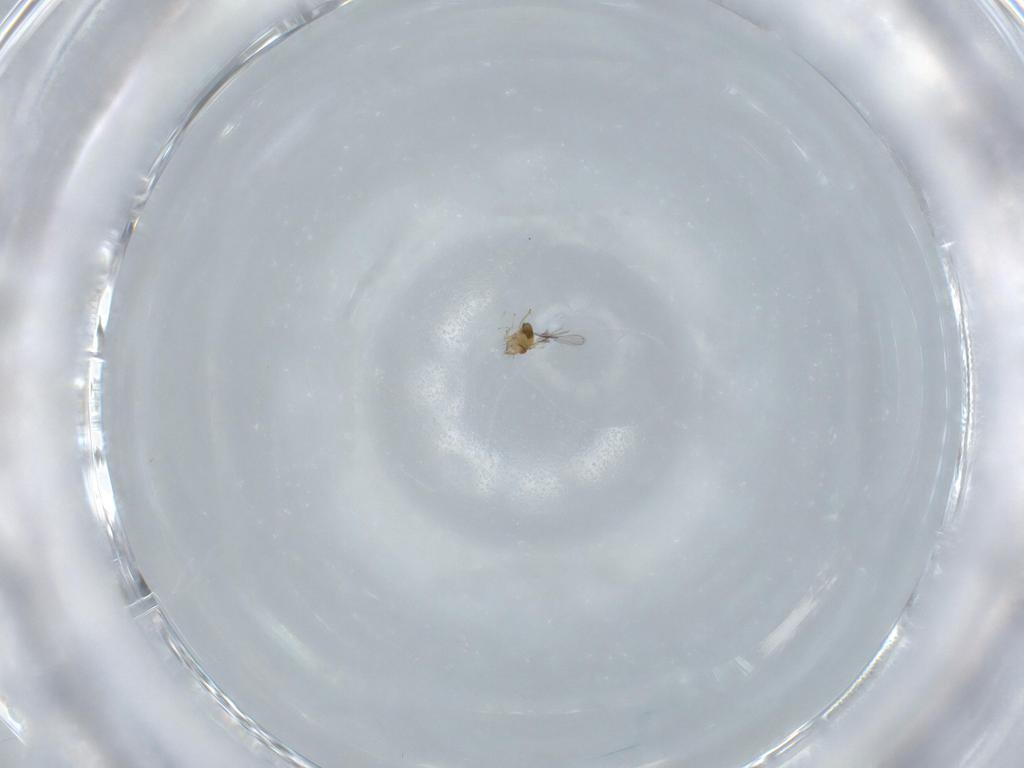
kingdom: Animalia
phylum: Arthropoda
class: Insecta
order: Hymenoptera
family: Trichogrammatidae
